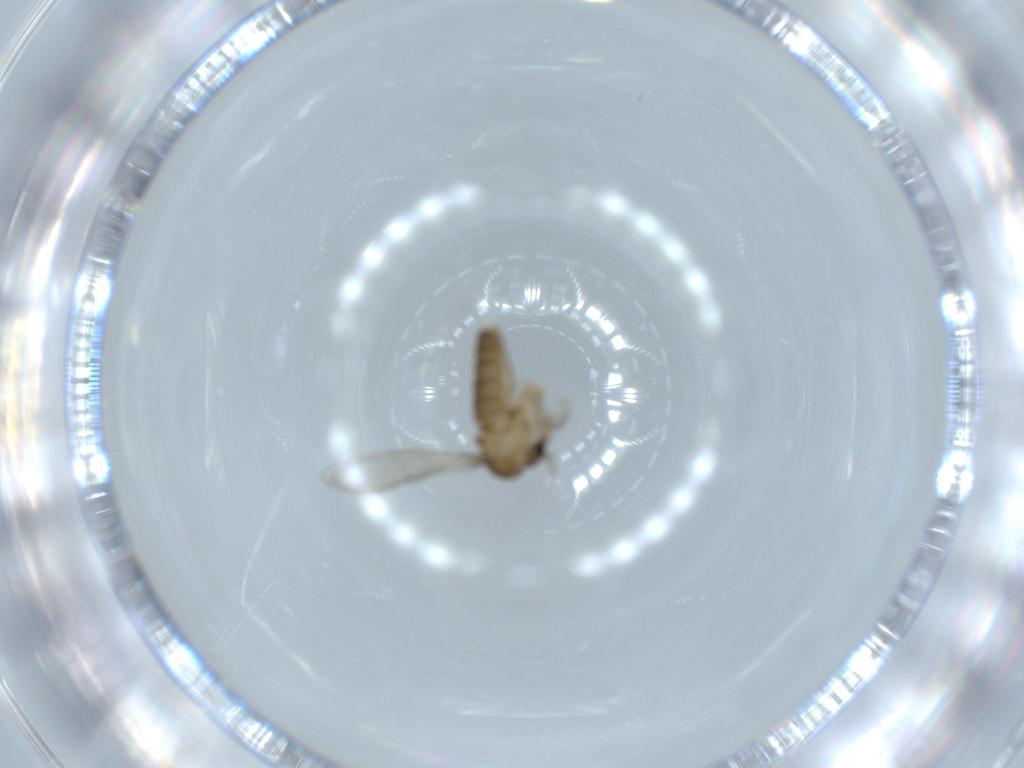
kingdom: Animalia
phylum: Arthropoda
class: Insecta
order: Diptera
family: Psychodidae
